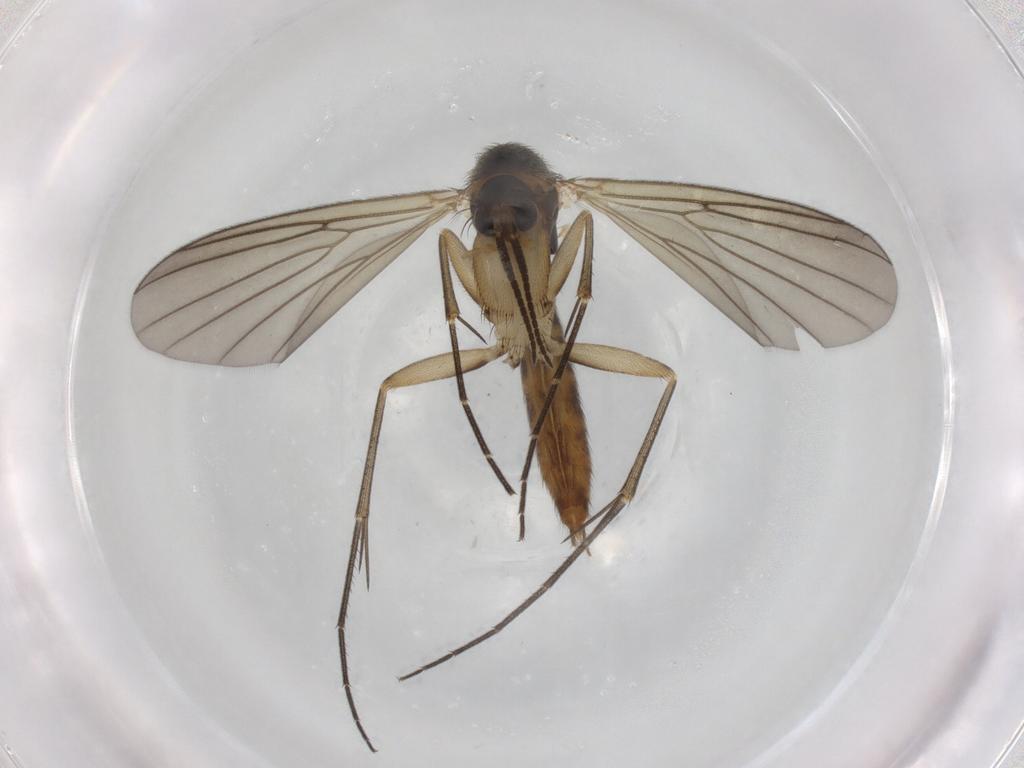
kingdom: Animalia
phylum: Arthropoda
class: Insecta
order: Diptera
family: Mycetophilidae
